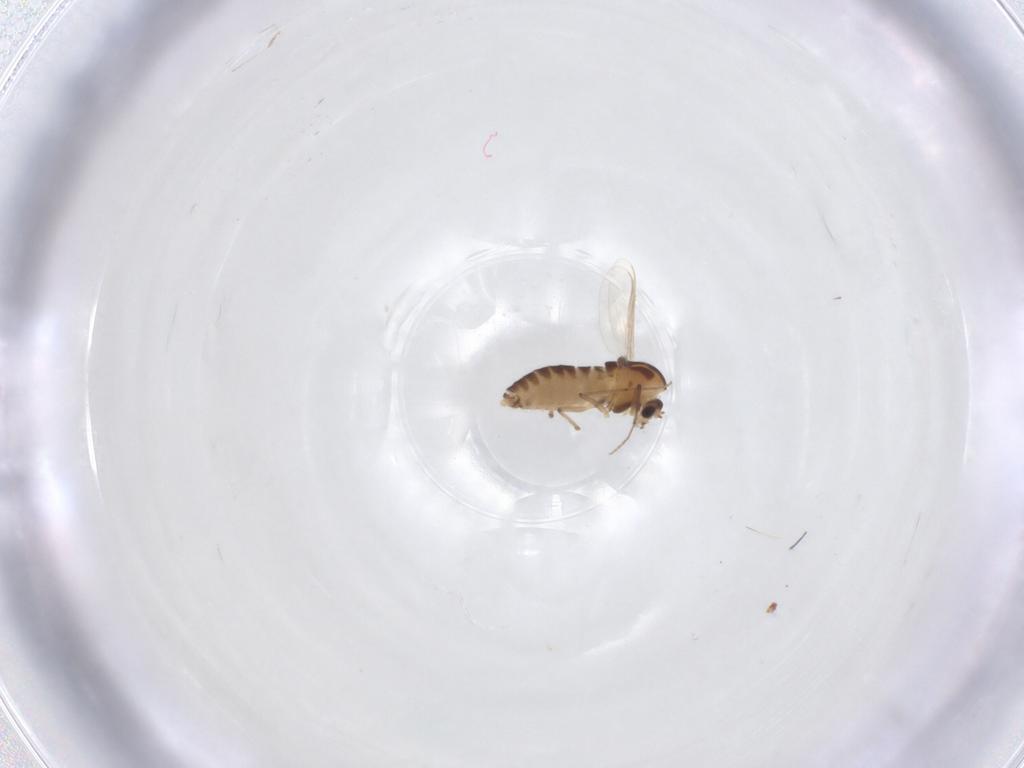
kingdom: Animalia
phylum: Arthropoda
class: Insecta
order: Diptera
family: Chironomidae
